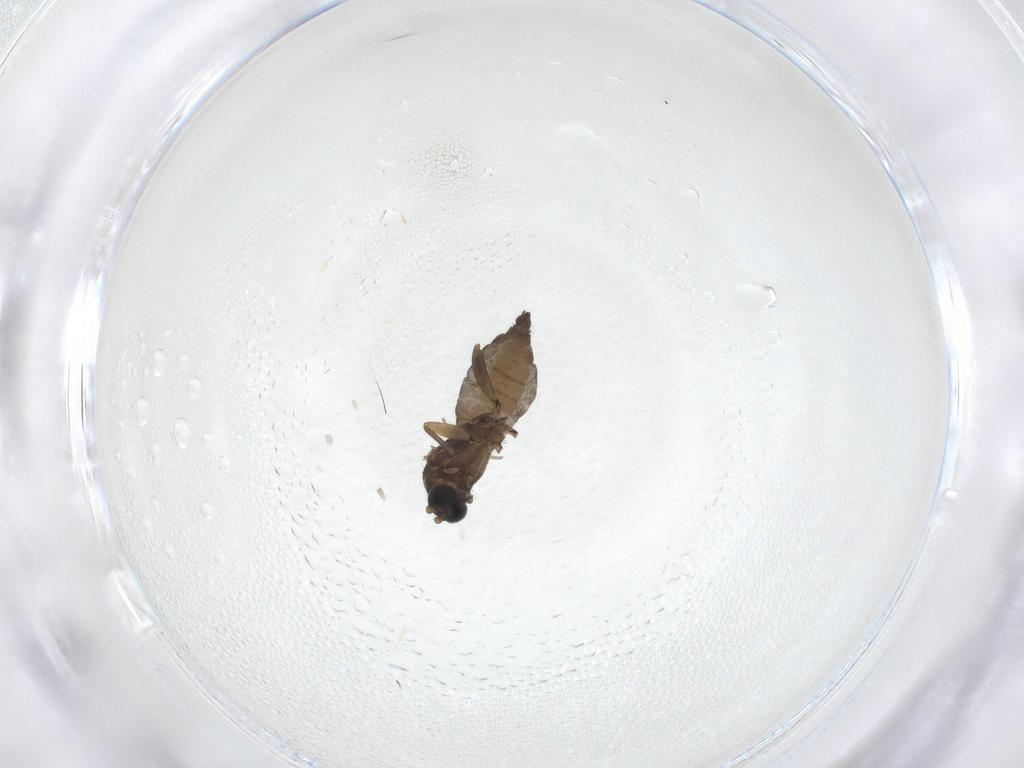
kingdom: Animalia
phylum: Arthropoda
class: Insecta
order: Diptera
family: Sciaridae
